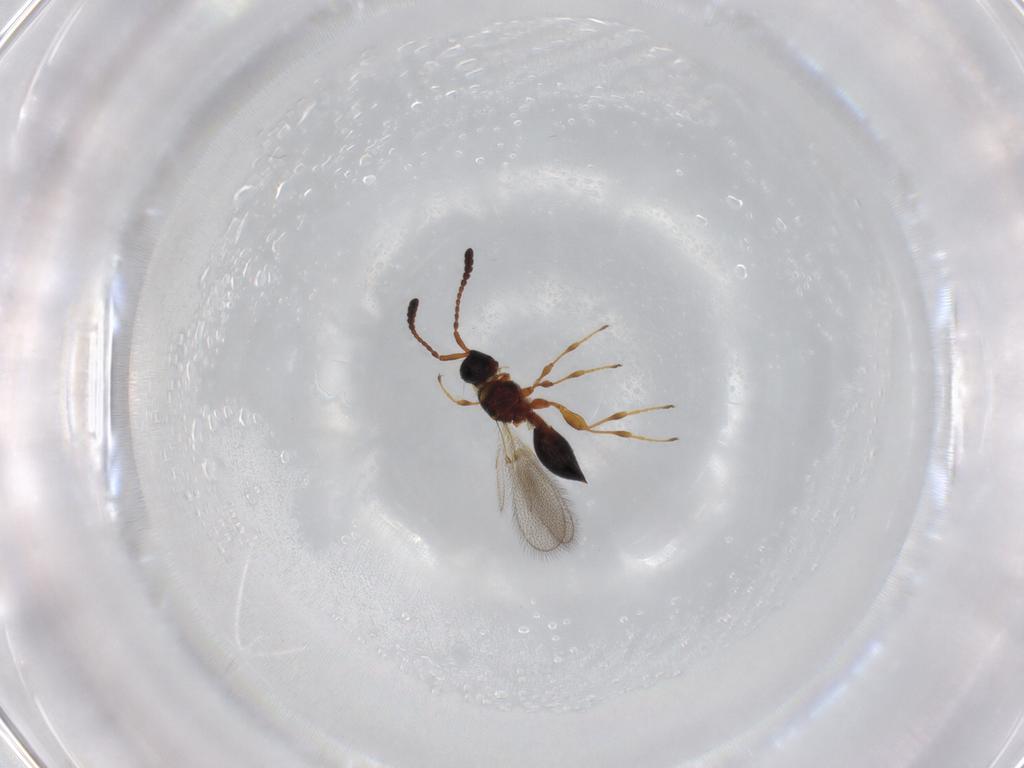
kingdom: Animalia
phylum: Arthropoda
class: Insecta
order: Hymenoptera
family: Diapriidae
